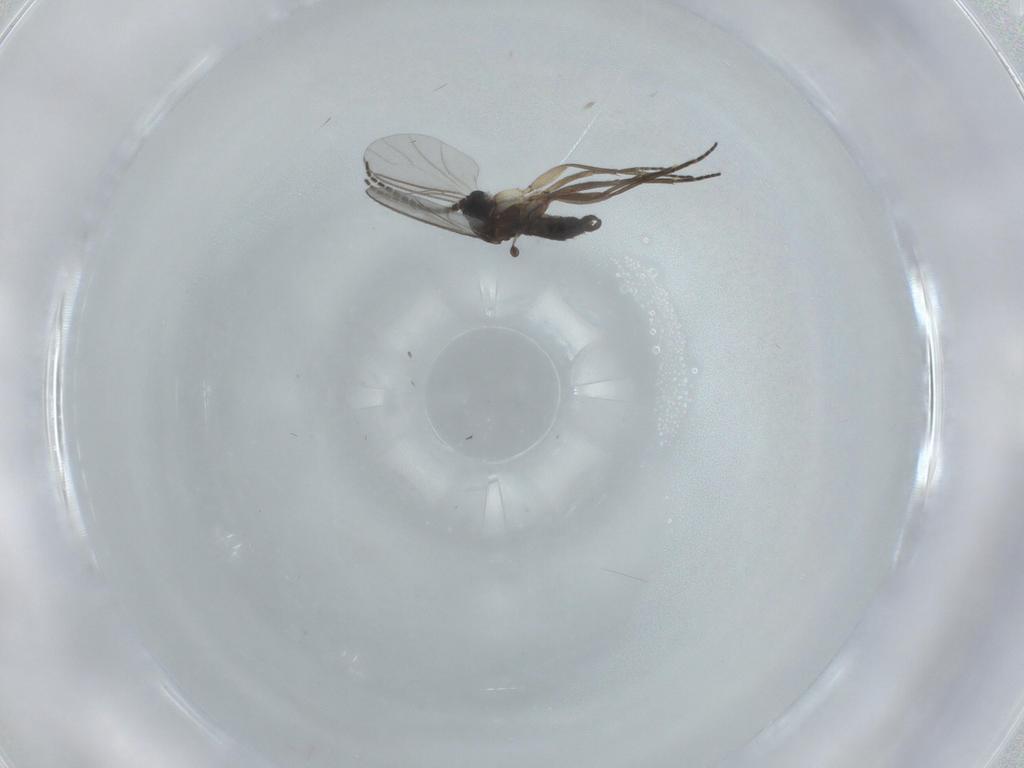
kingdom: Animalia
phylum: Arthropoda
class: Insecta
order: Diptera
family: Sciaridae
